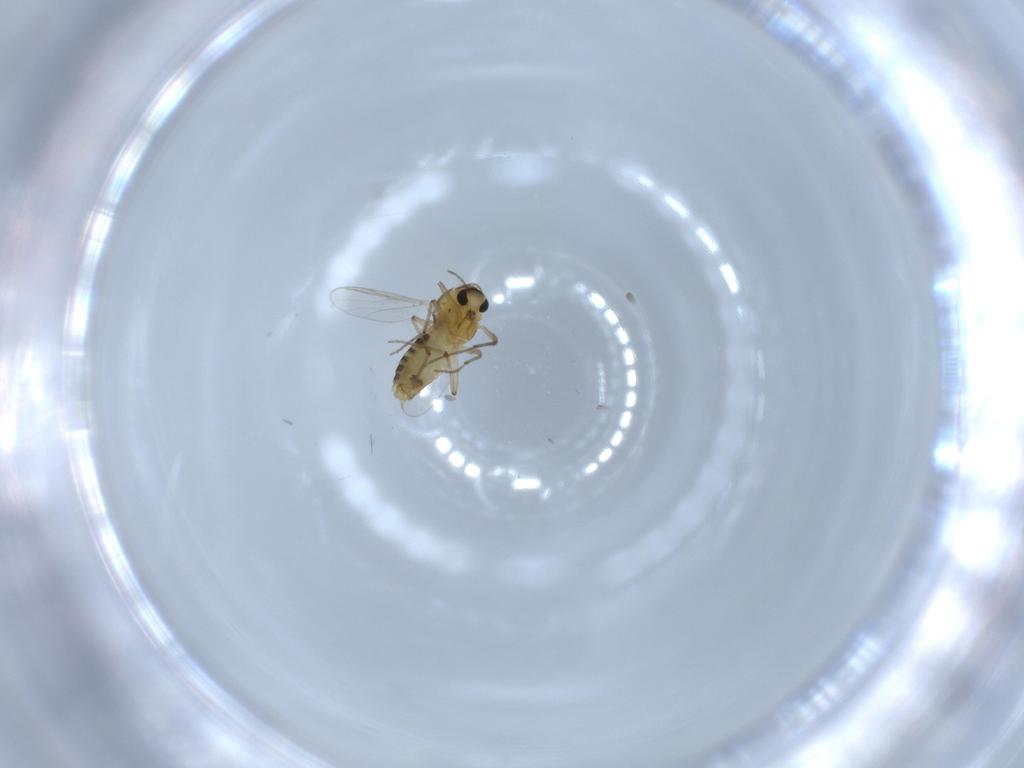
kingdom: Animalia
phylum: Arthropoda
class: Insecta
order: Diptera
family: Chironomidae
